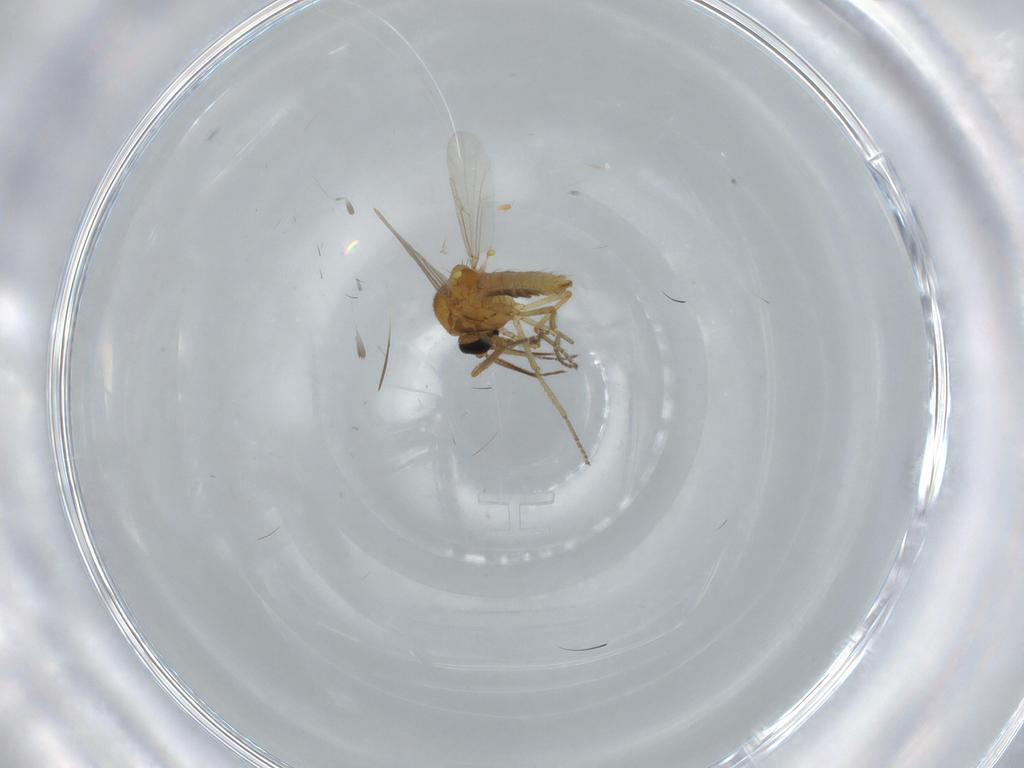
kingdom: Animalia
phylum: Arthropoda
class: Insecta
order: Diptera
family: Ceratopogonidae
